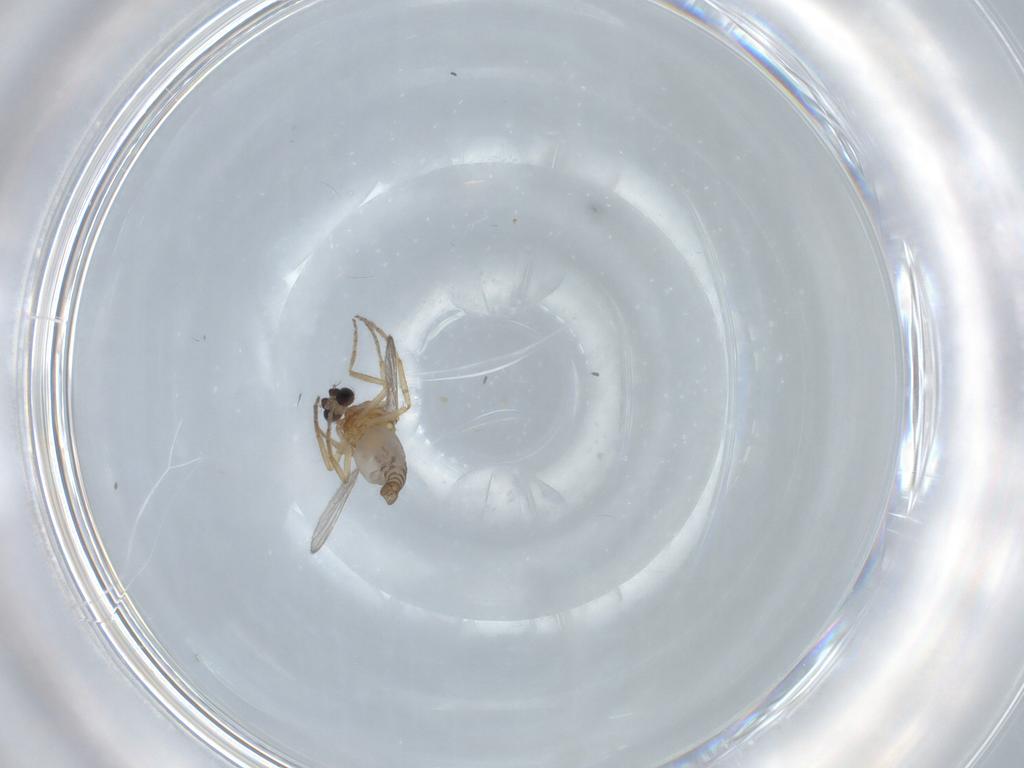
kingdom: Animalia
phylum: Arthropoda
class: Insecta
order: Diptera
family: Ceratopogonidae
